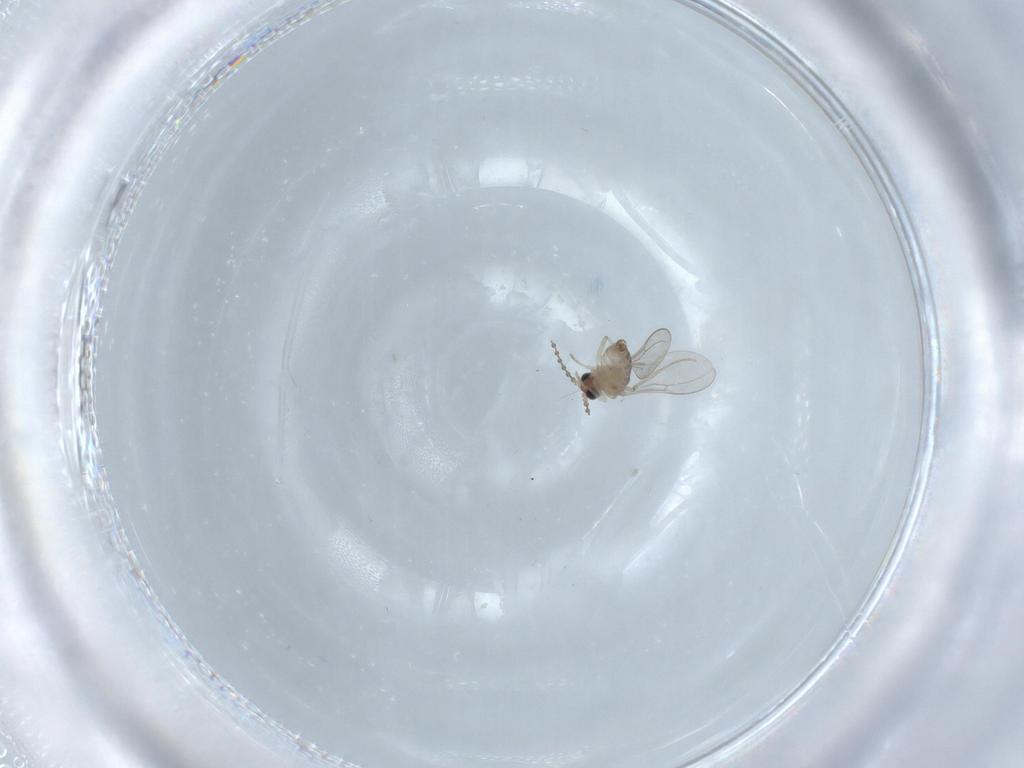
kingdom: Animalia
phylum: Arthropoda
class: Insecta
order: Diptera
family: Cecidomyiidae
